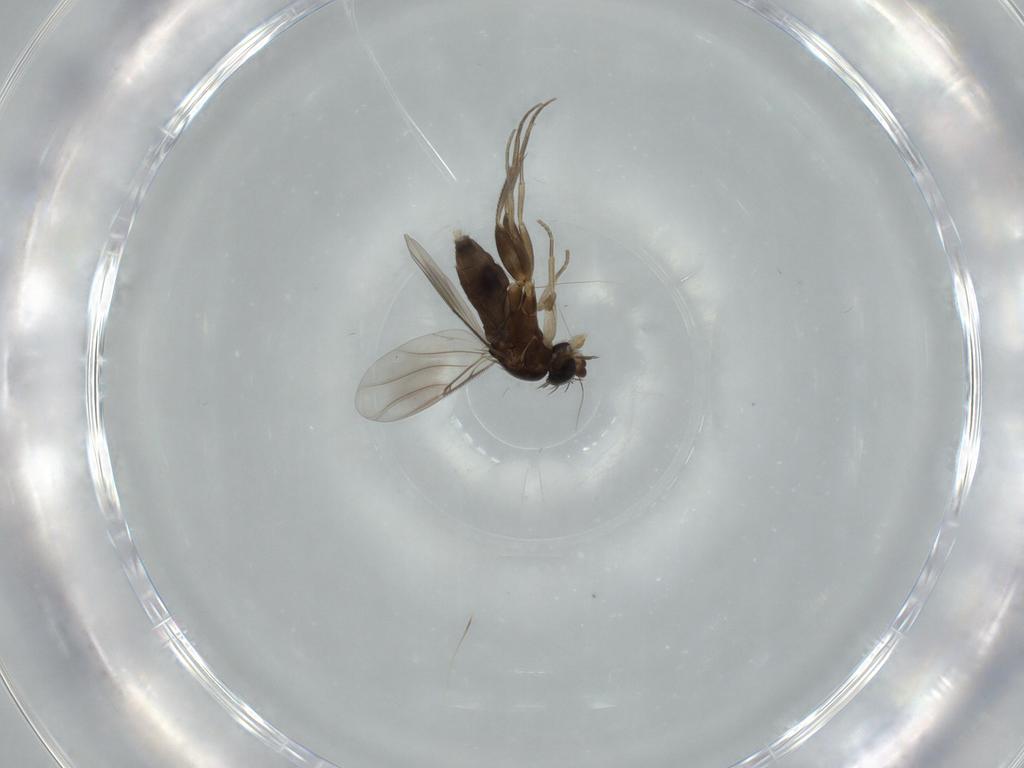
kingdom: Animalia
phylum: Arthropoda
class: Insecta
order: Diptera
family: Phoridae
